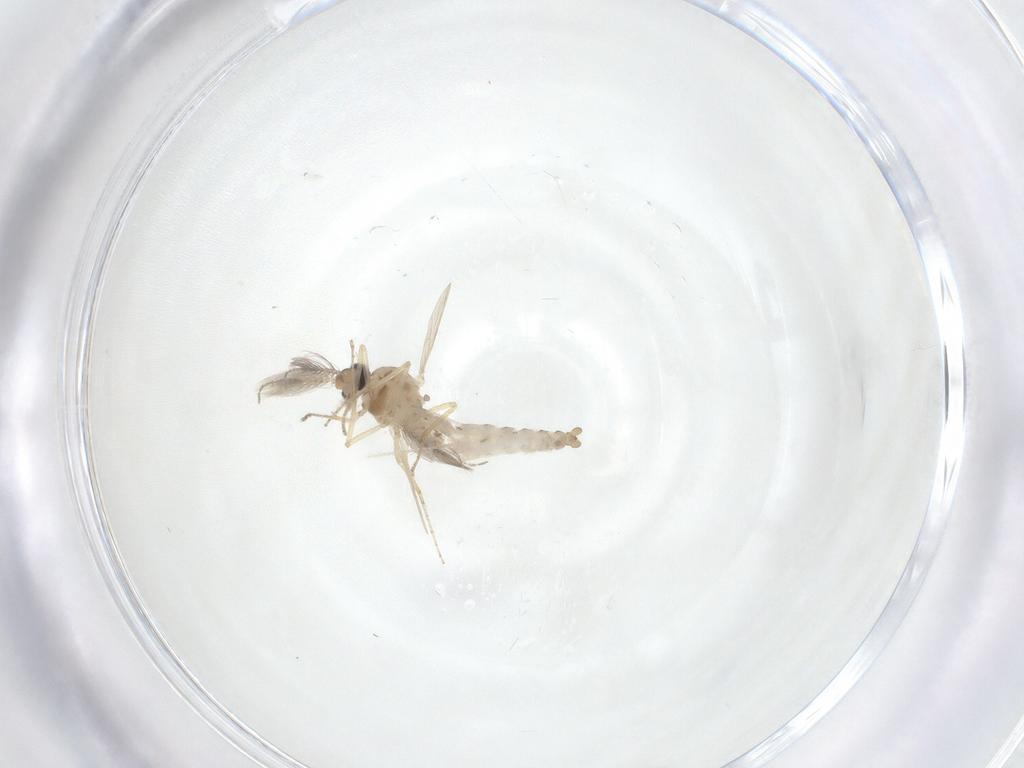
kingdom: Animalia
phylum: Arthropoda
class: Insecta
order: Diptera
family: Ceratopogonidae
